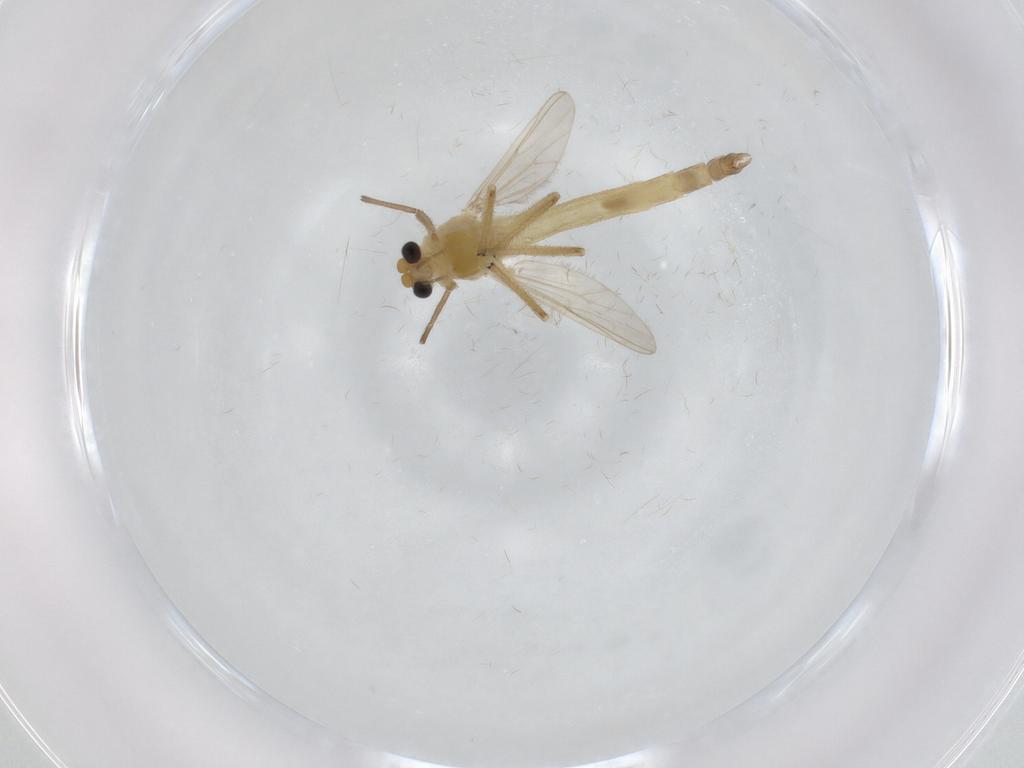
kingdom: Animalia
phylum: Arthropoda
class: Insecta
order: Diptera
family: Chironomidae
